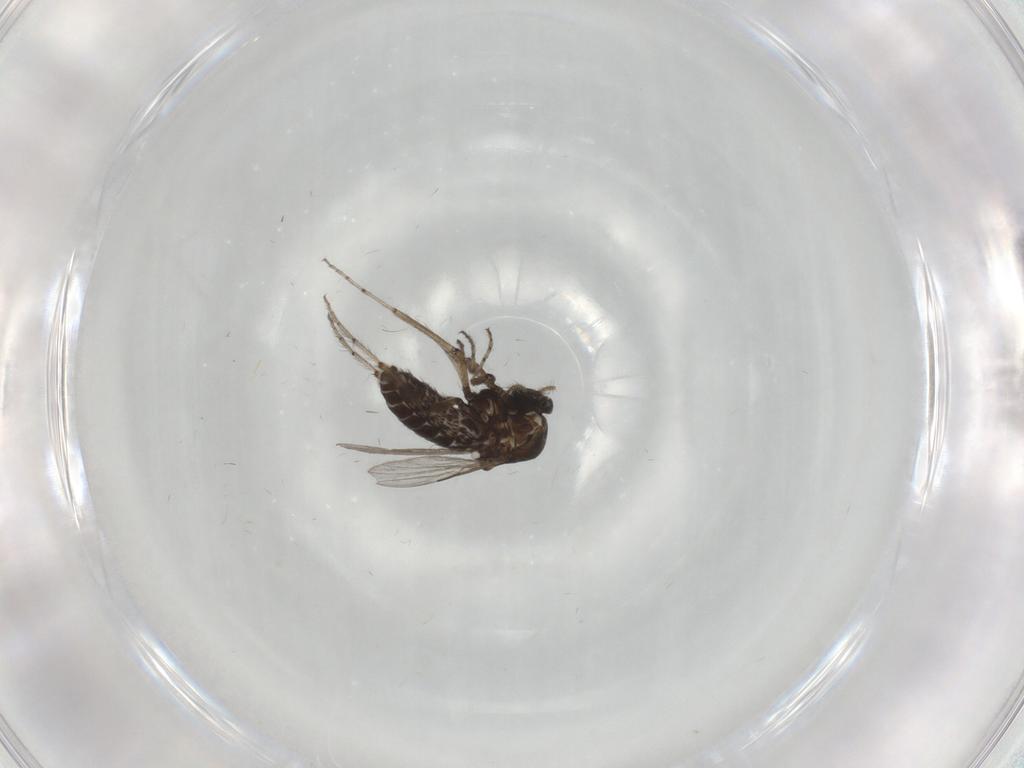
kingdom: Animalia
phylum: Arthropoda
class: Insecta
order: Diptera
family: Ceratopogonidae
